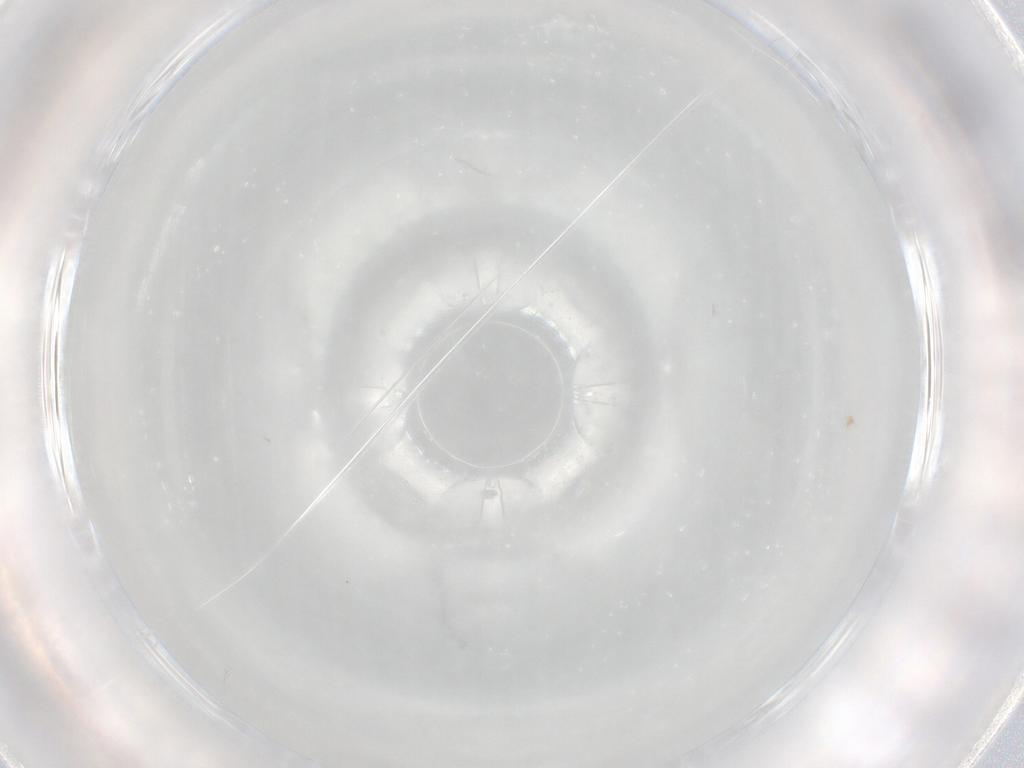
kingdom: Animalia
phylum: Arthropoda
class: Insecta
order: Hymenoptera
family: Mymaridae
